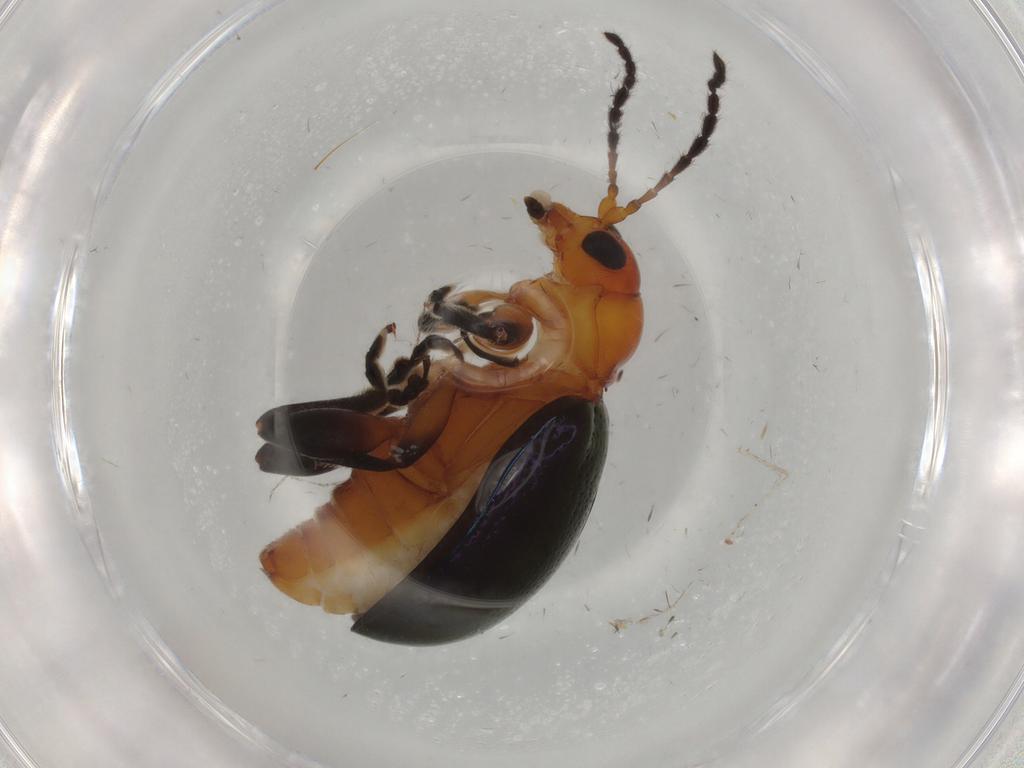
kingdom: Animalia
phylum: Arthropoda
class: Insecta
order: Coleoptera
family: Chrysomelidae
